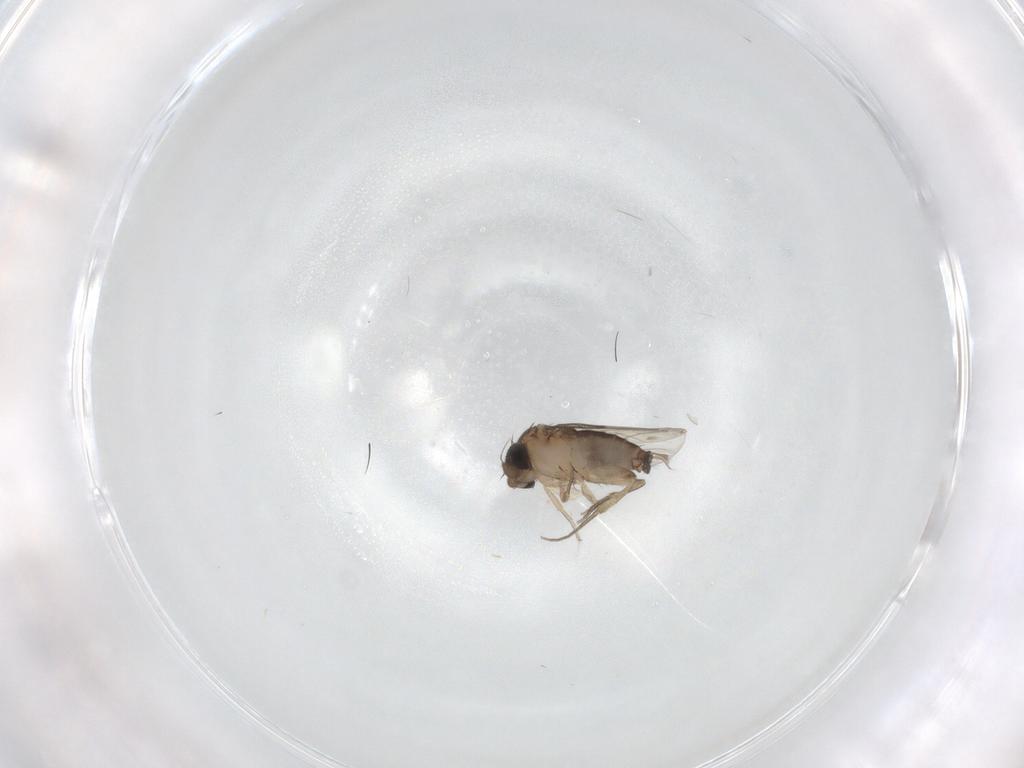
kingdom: Animalia
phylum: Arthropoda
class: Insecta
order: Diptera
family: Phoridae
